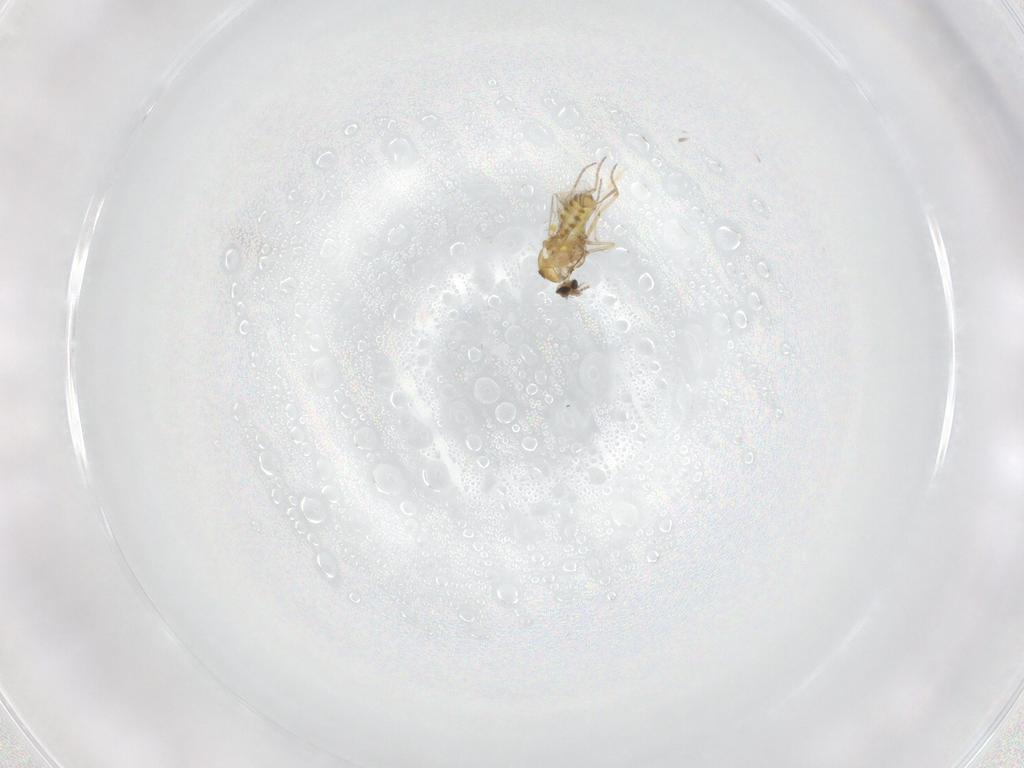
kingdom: Animalia
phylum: Arthropoda
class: Insecta
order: Diptera
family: Ceratopogonidae
